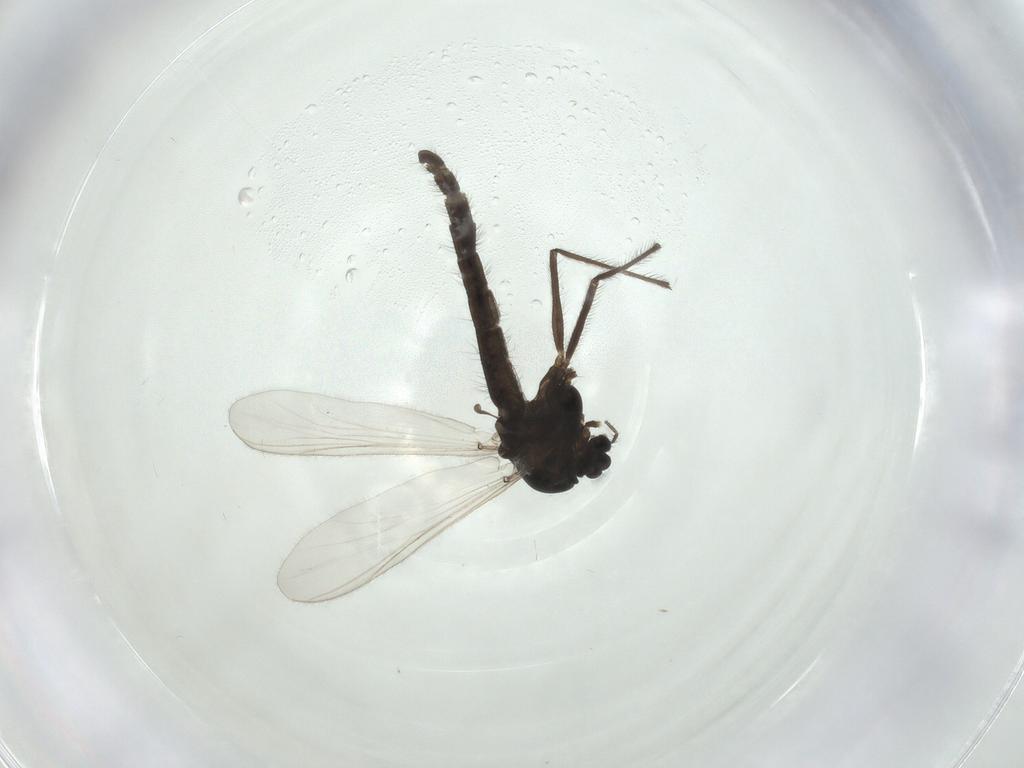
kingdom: Animalia
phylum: Arthropoda
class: Insecta
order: Diptera
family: Chironomidae
